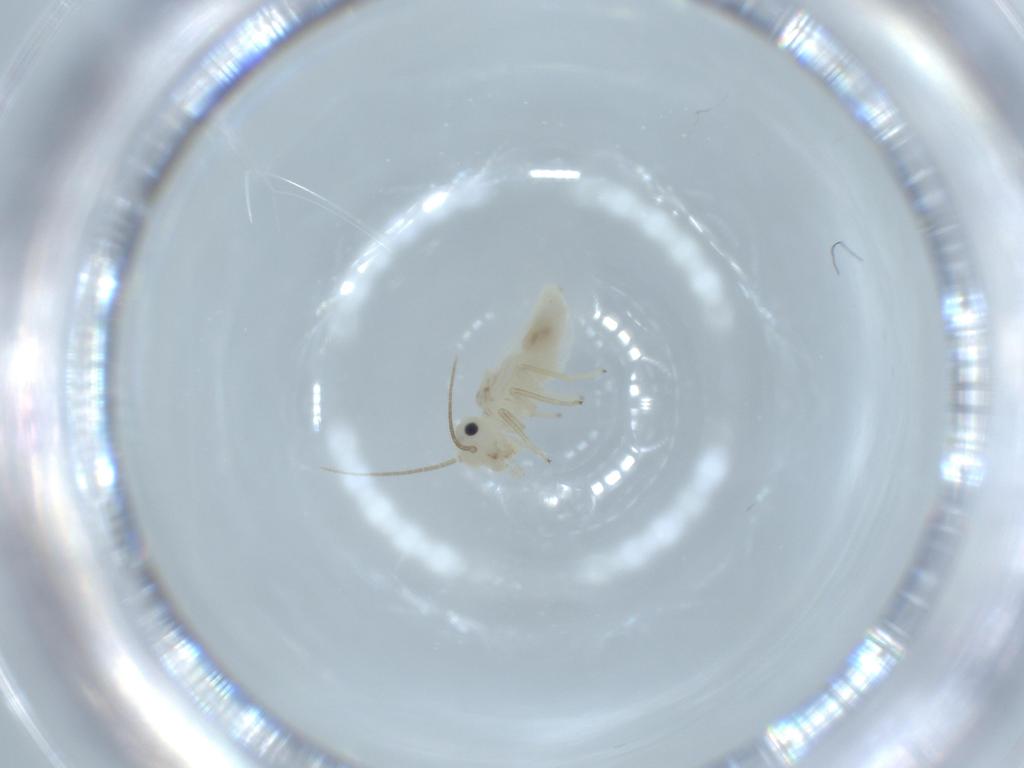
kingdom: Animalia
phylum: Arthropoda
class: Insecta
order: Psocodea
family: Caeciliusidae
